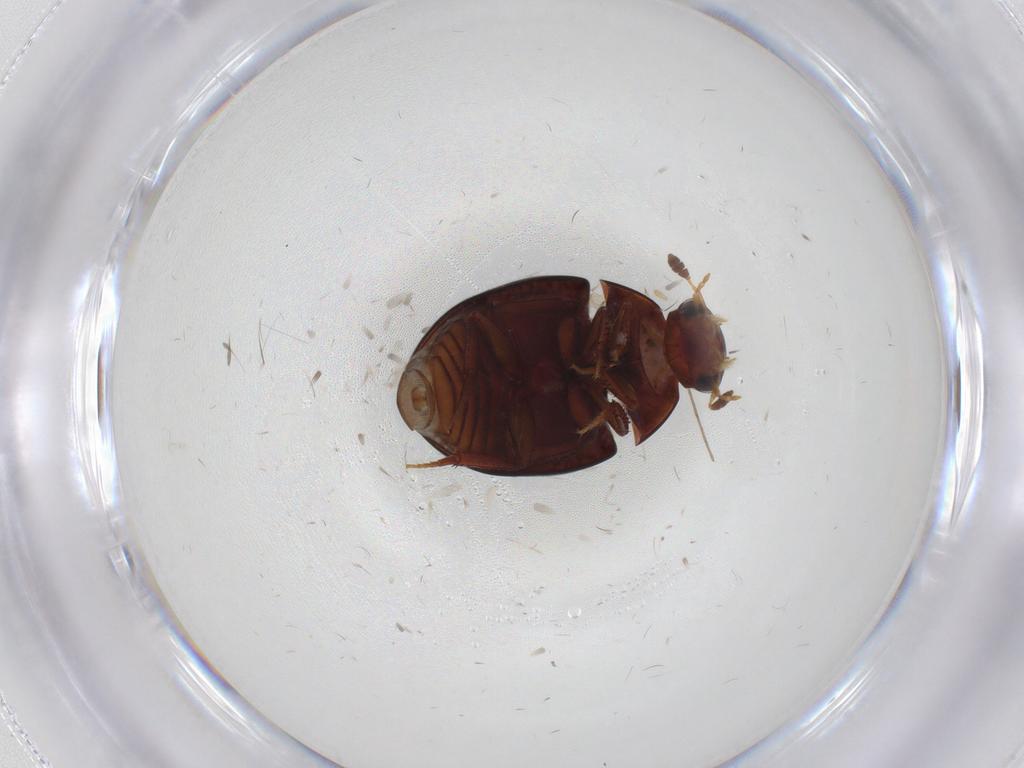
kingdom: Animalia
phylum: Arthropoda
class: Insecta
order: Coleoptera
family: Hydrophilidae
